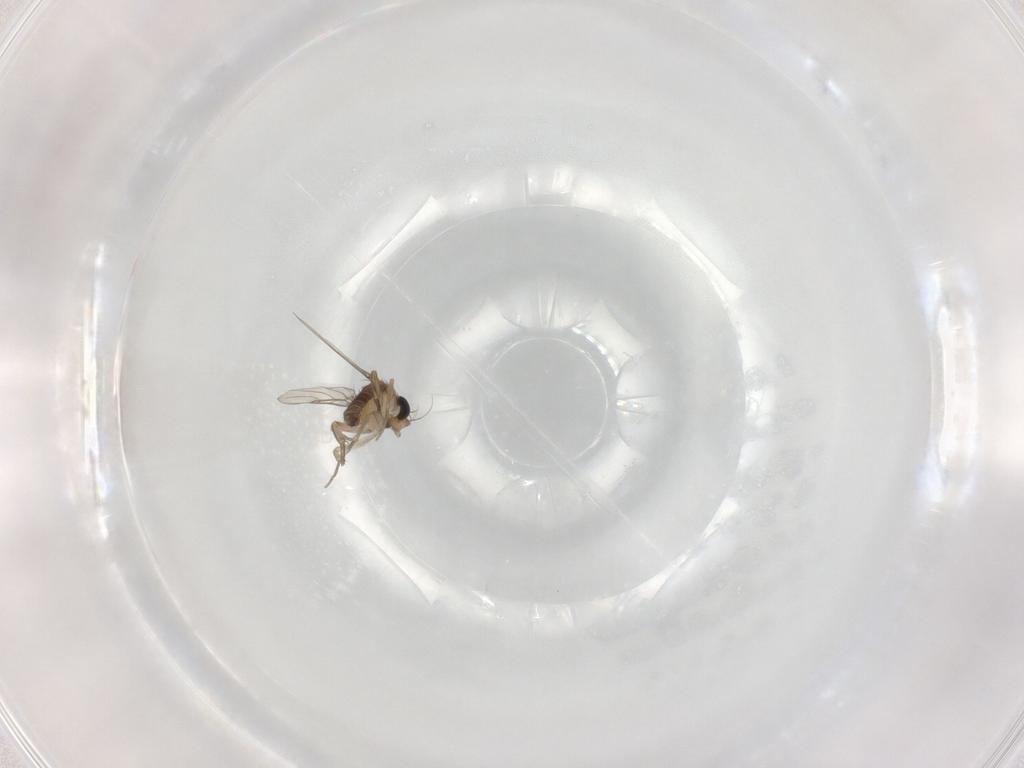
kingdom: Animalia
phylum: Arthropoda
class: Insecta
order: Diptera
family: Phoridae
